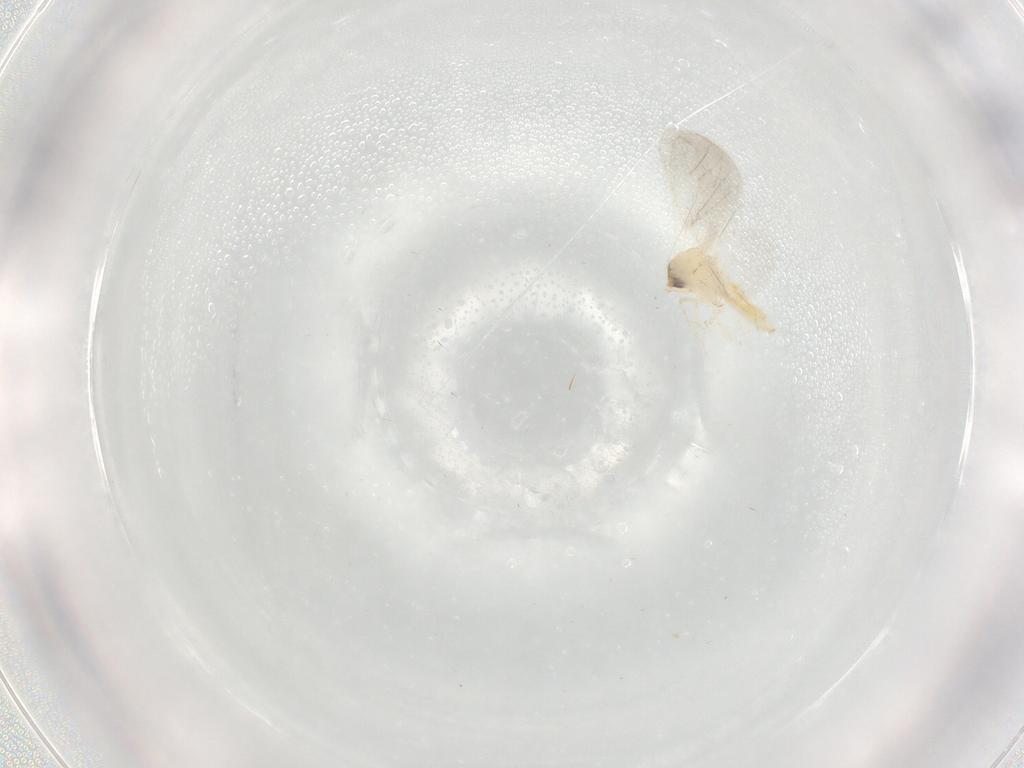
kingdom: Animalia
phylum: Arthropoda
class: Insecta
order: Hemiptera
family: Aleyrodidae
